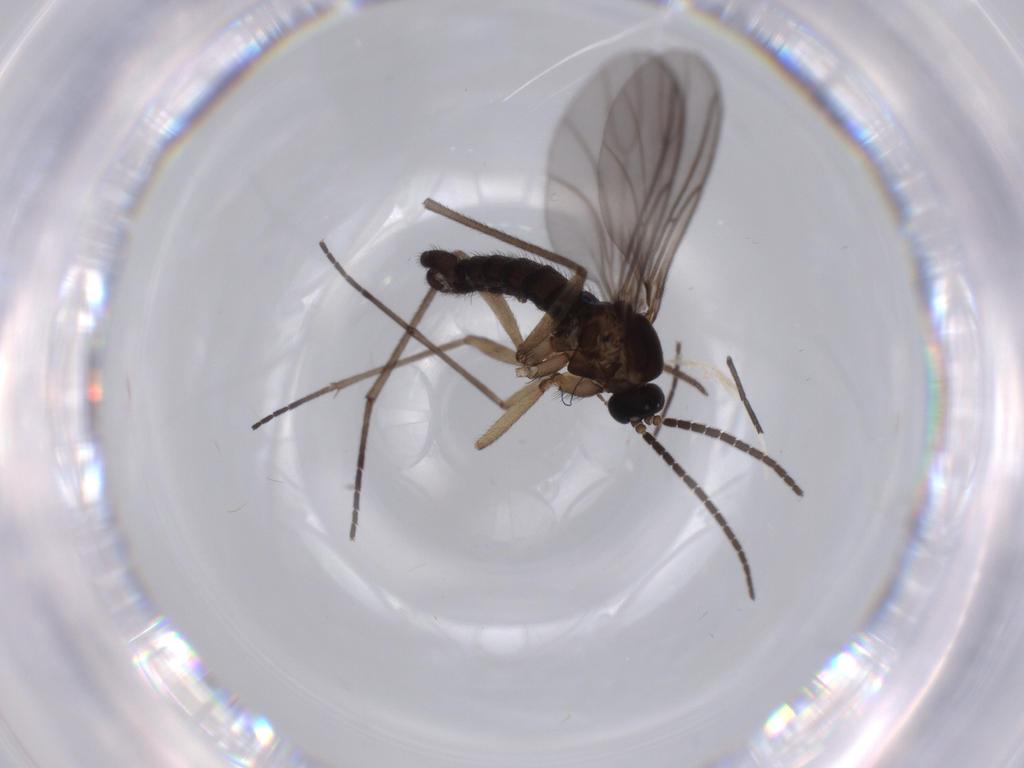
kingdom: Animalia
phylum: Arthropoda
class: Insecta
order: Diptera
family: Sciaridae
